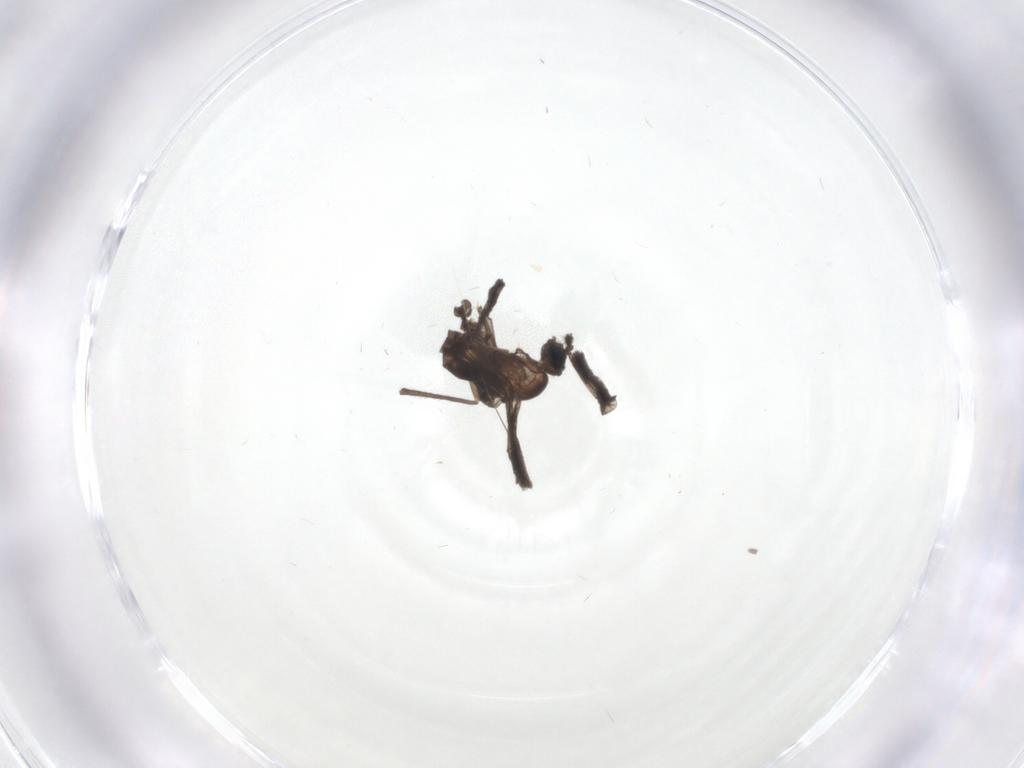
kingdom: Animalia
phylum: Arthropoda
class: Insecta
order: Diptera
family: Sciaridae
